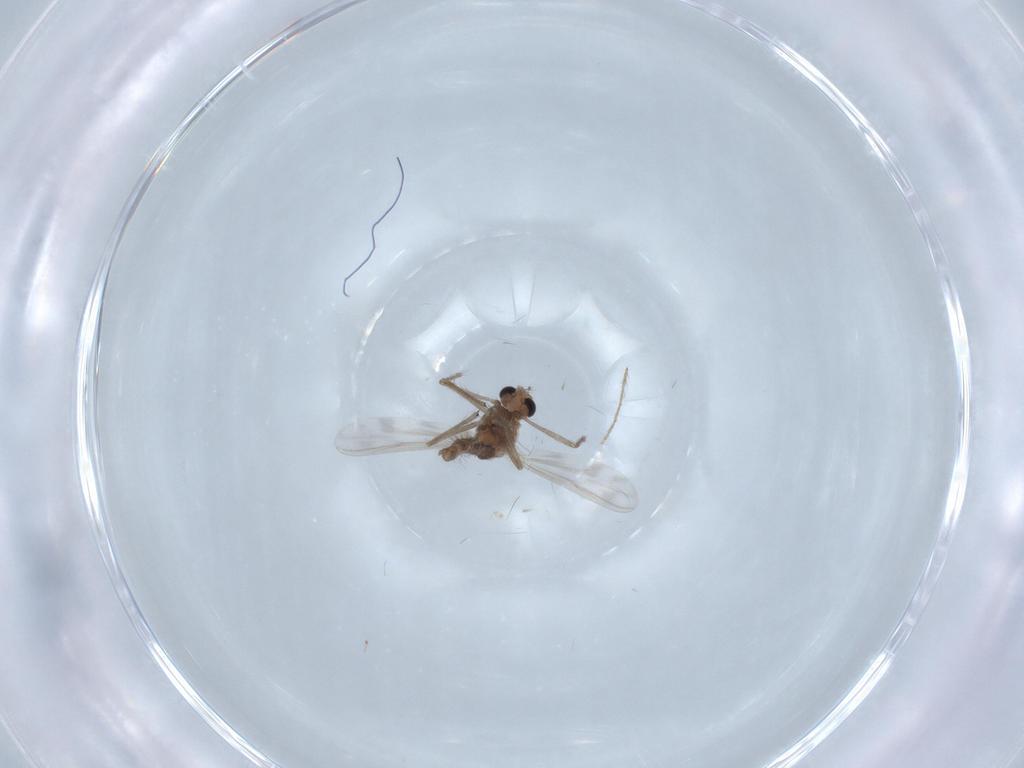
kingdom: Animalia
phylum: Arthropoda
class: Insecta
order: Diptera
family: Chironomidae
